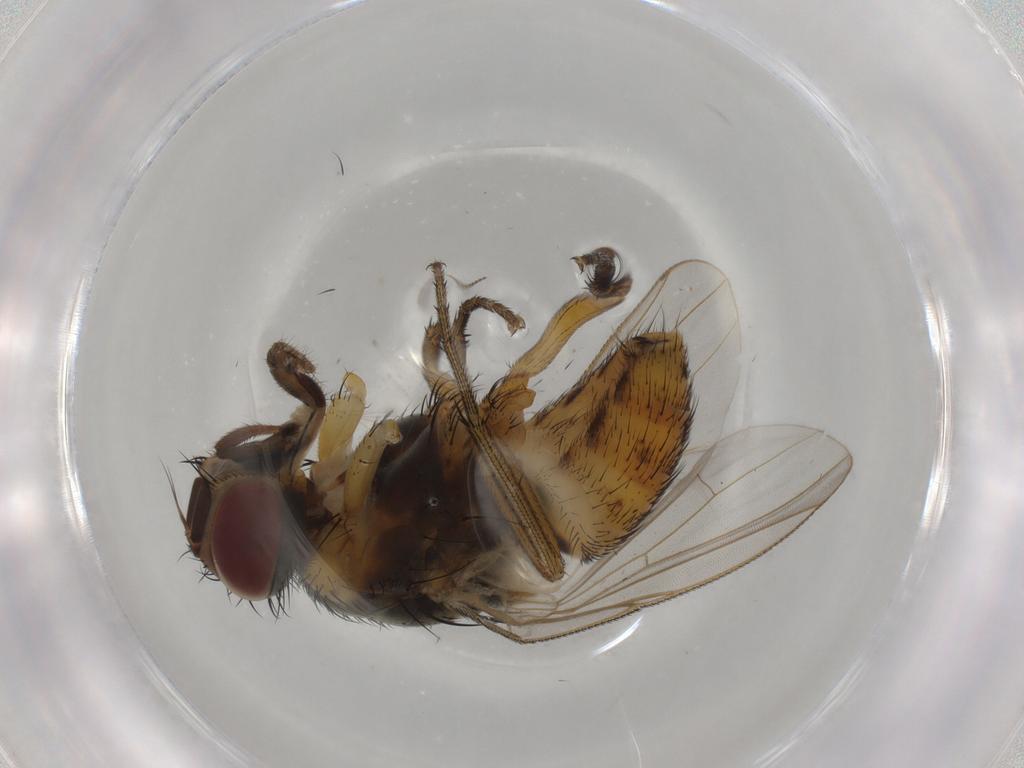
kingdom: Animalia
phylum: Arthropoda
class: Insecta
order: Diptera
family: Muscidae
